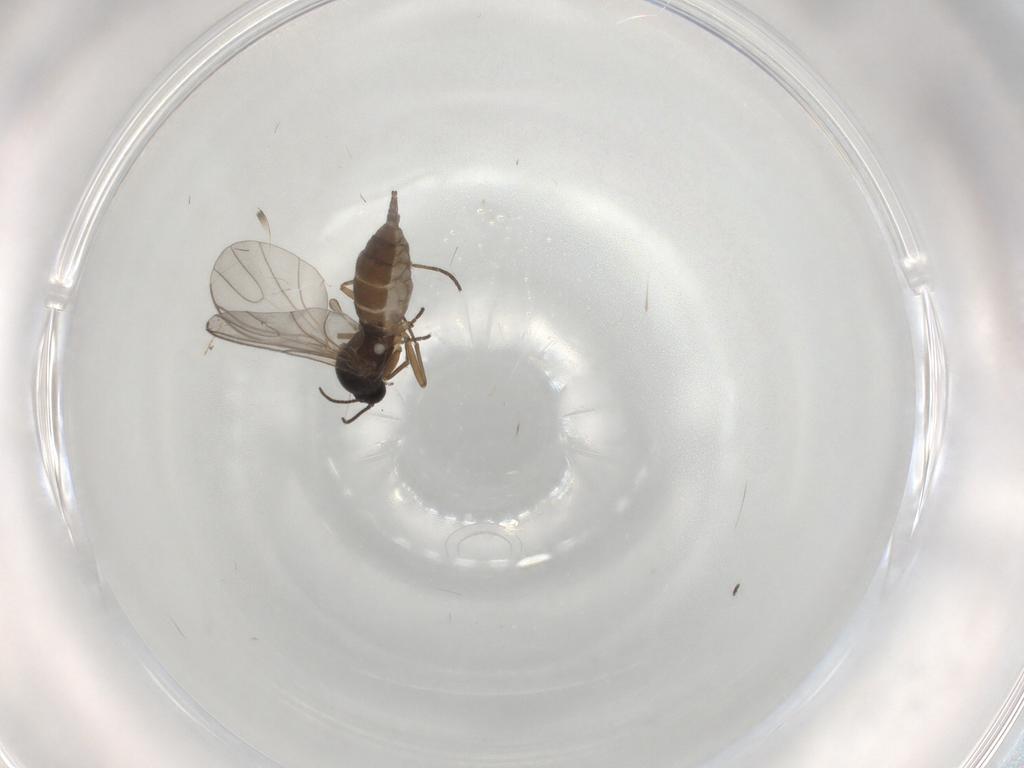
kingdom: Animalia
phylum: Arthropoda
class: Insecta
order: Diptera
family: Sciaridae
